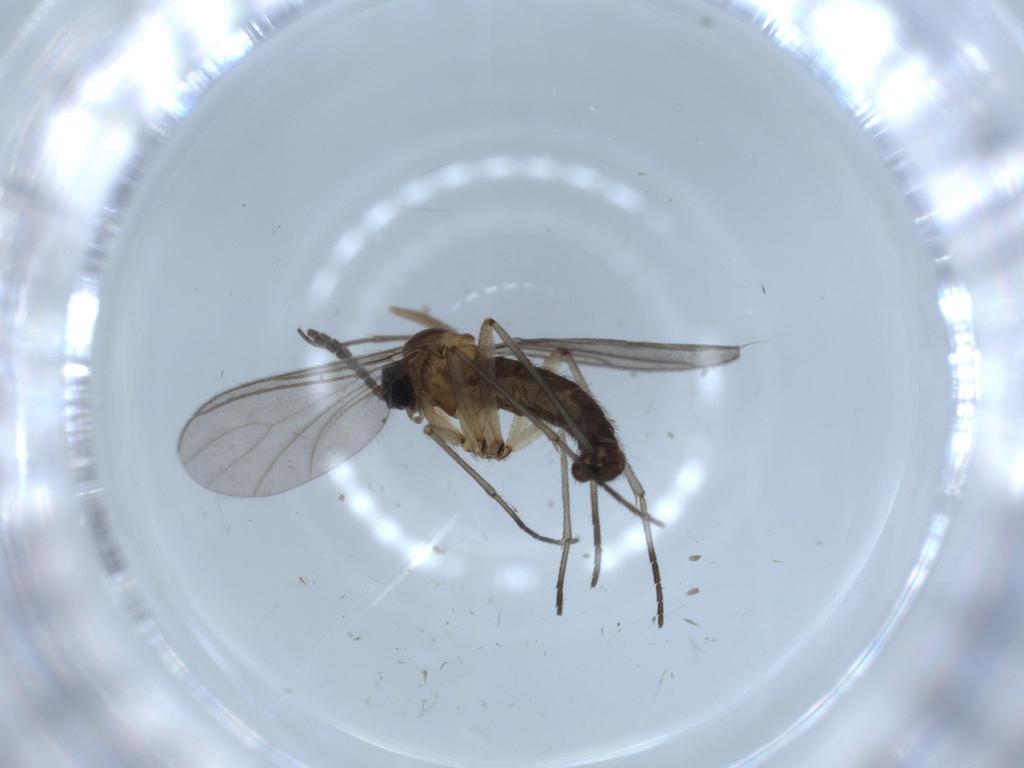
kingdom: Animalia
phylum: Arthropoda
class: Insecta
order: Diptera
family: Sciaridae
